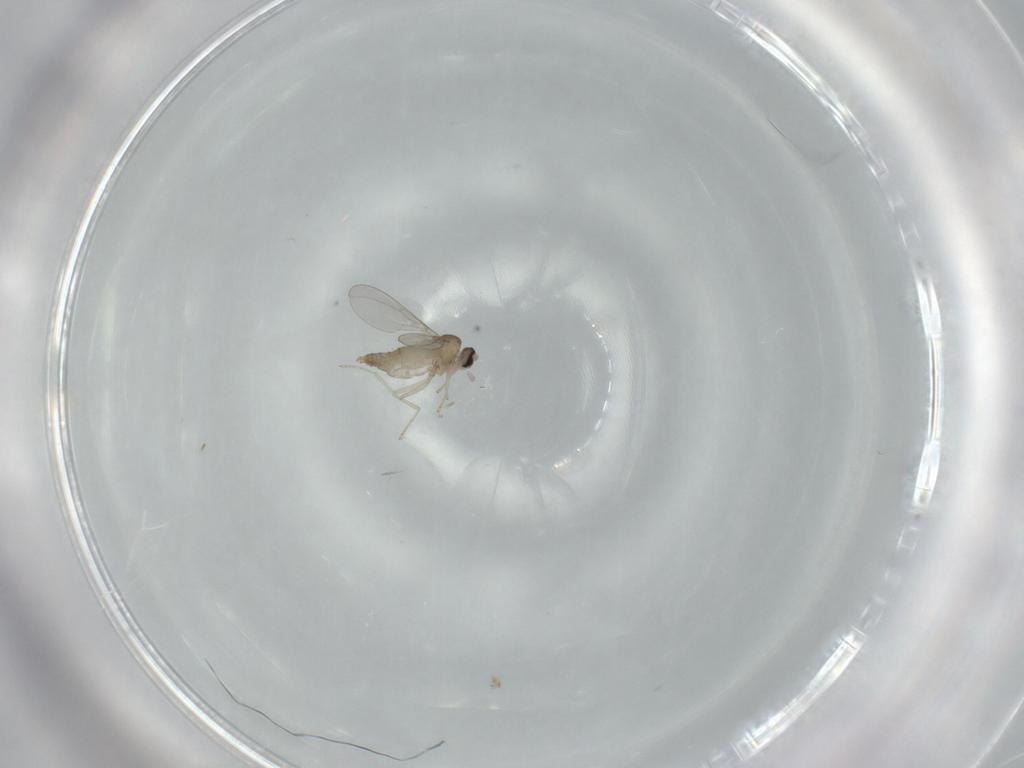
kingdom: Animalia
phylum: Arthropoda
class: Insecta
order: Diptera
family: Cecidomyiidae
